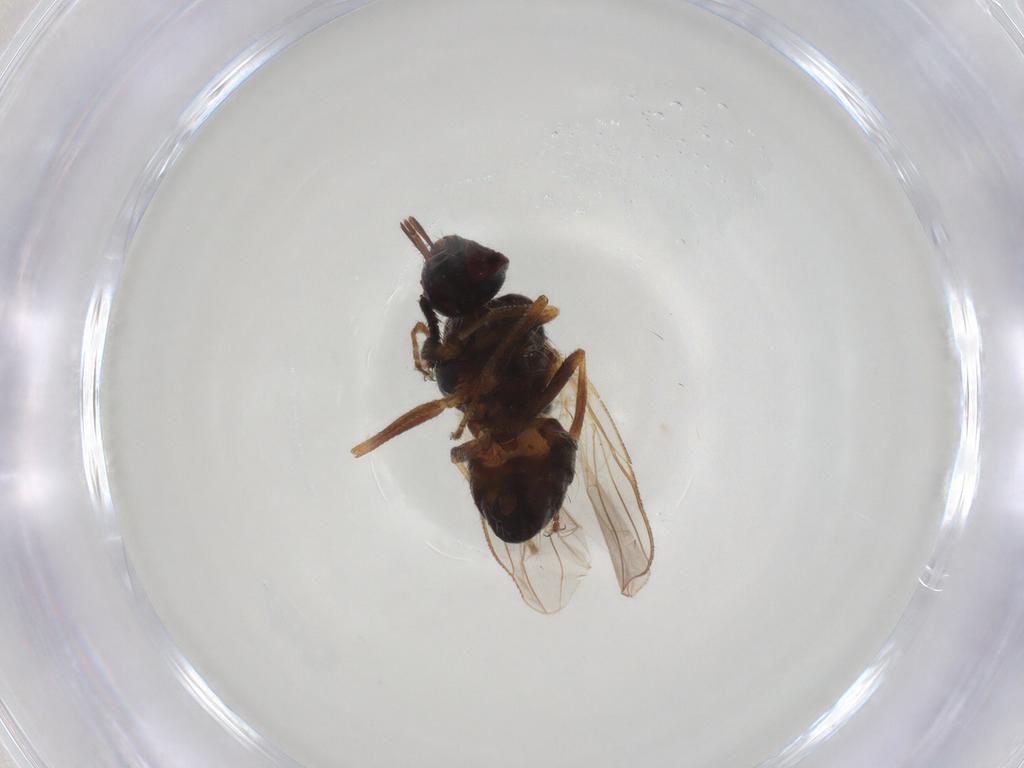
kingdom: Animalia
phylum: Arthropoda
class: Insecta
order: Diptera
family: Muscidae
